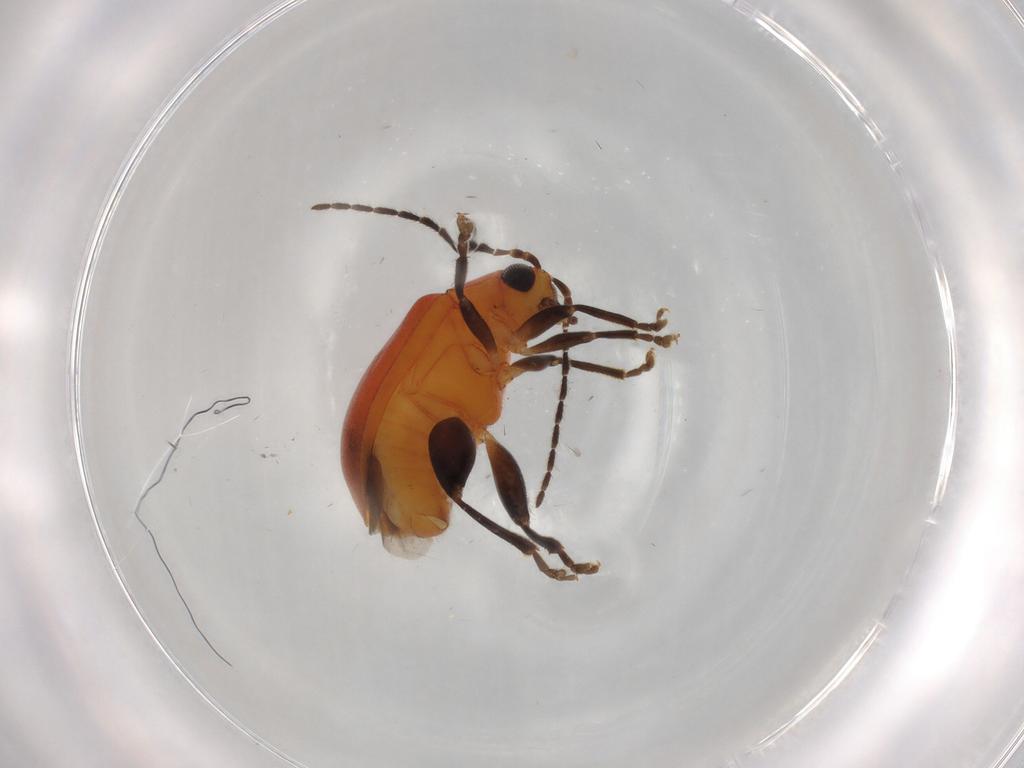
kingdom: Animalia
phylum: Arthropoda
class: Insecta
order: Coleoptera
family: Chrysomelidae
